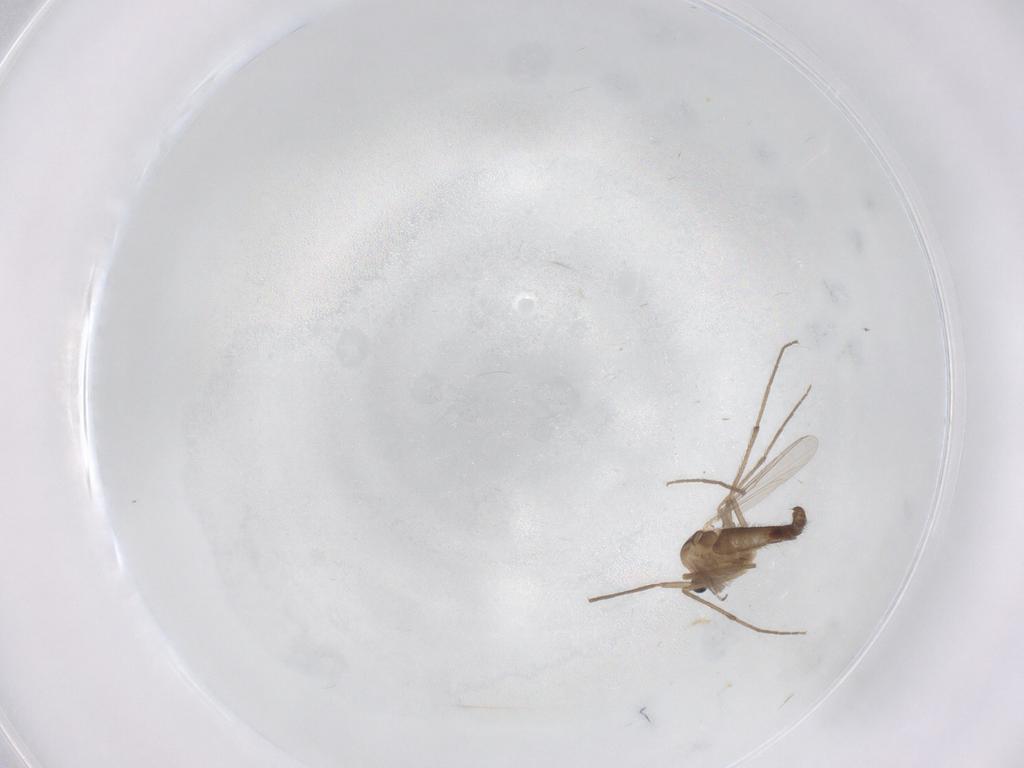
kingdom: Animalia
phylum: Arthropoda
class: Insecta
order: Diptera
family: Chironomidae
